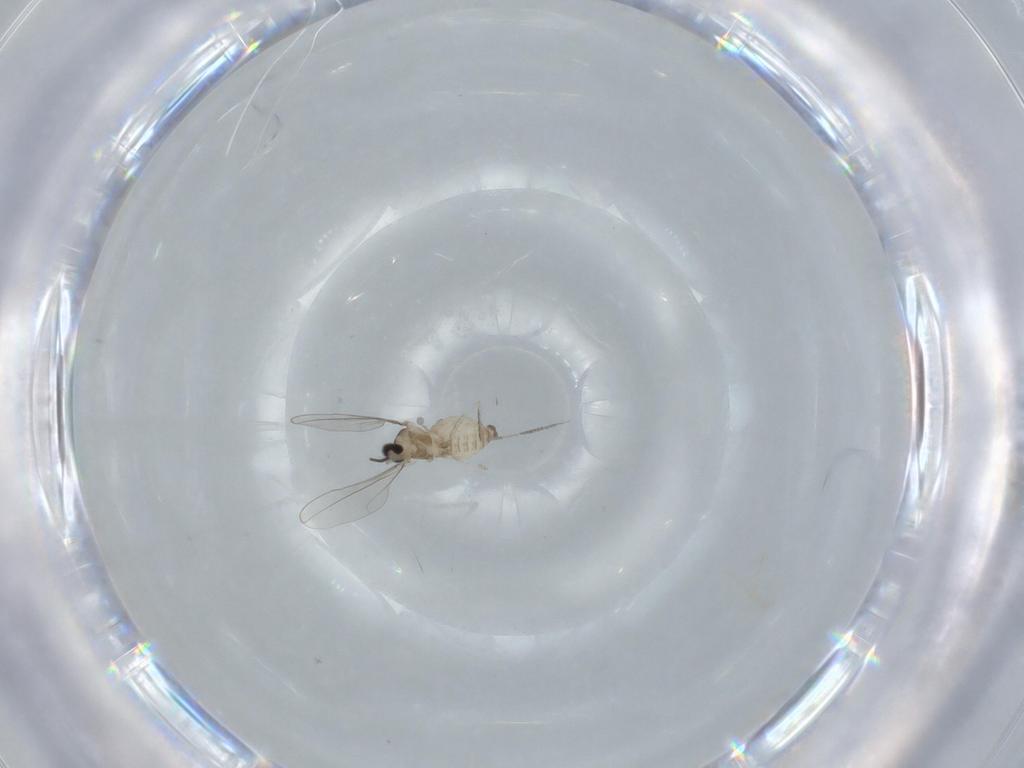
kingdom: Animalia
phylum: Arthropoda
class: Insecta
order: Diptera
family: Cecidomyiidae
